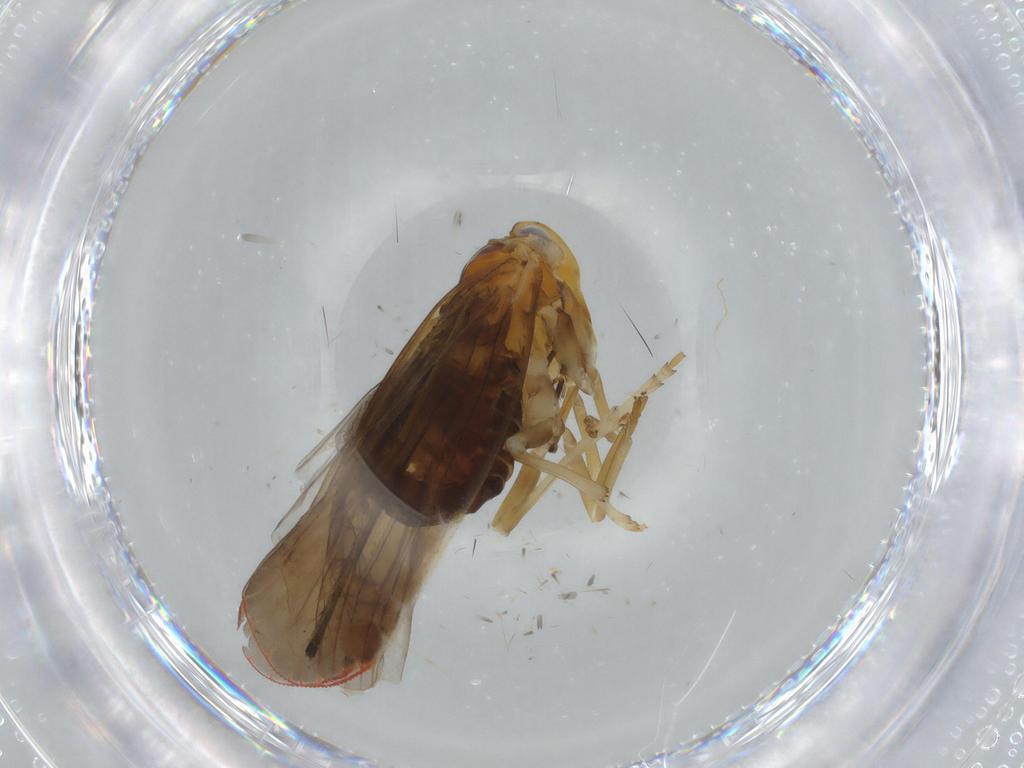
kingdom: Animalia
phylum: Arthropoda
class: Insecta
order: Hemiptera
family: Derbidae
